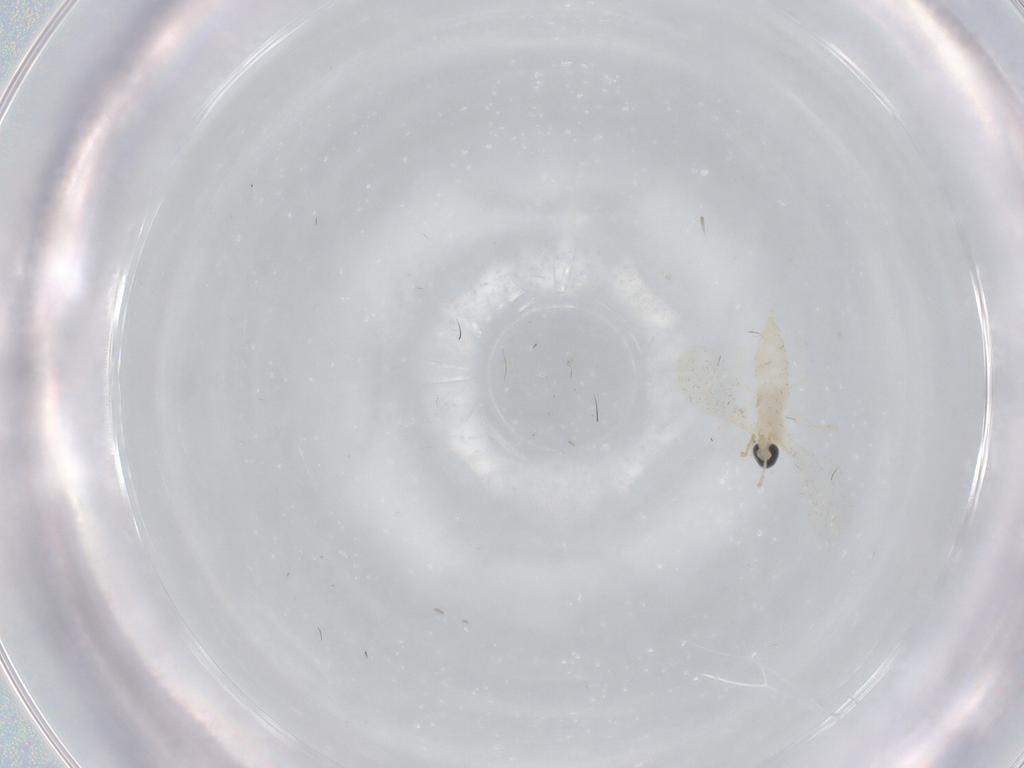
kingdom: Animalia
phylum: Arthropoda
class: Insecta
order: Diptera
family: Cecidomyiidae
